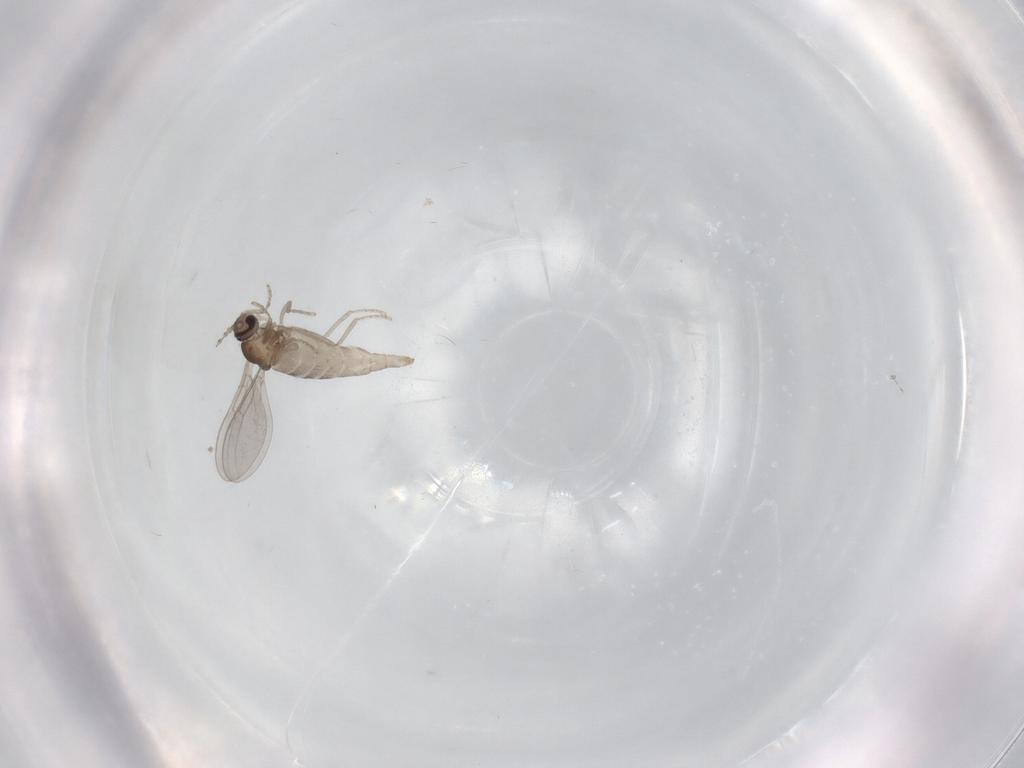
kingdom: Animalia
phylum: Arthropoda
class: Insecta
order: Diptera
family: Cecidomyiidae
